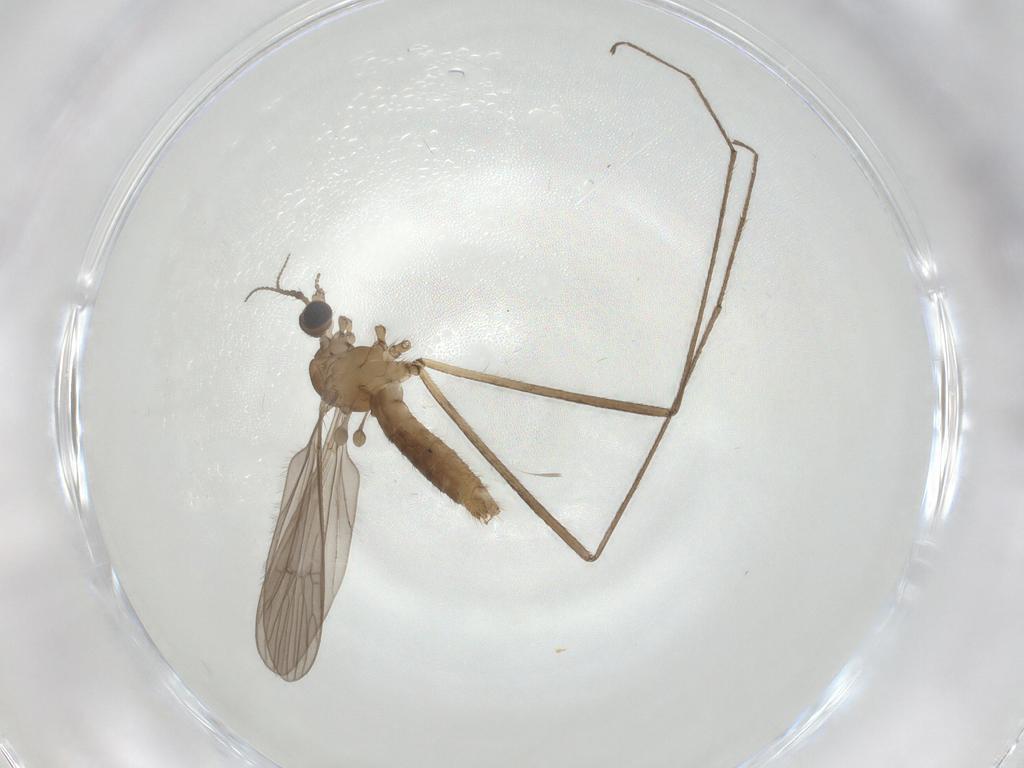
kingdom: Animalia
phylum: Arthropoda
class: Insecta
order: Diptera
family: Limoniidae
